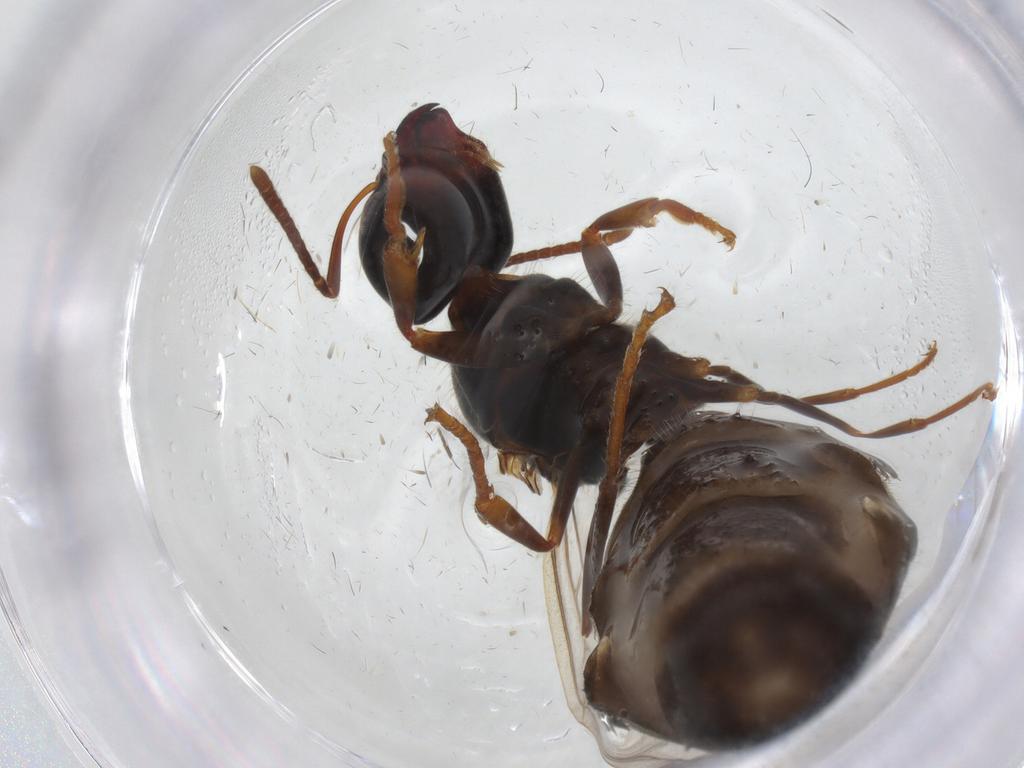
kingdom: Animalia
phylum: Arthropoda
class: Insecta
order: Hymenoptera
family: Formicidae
